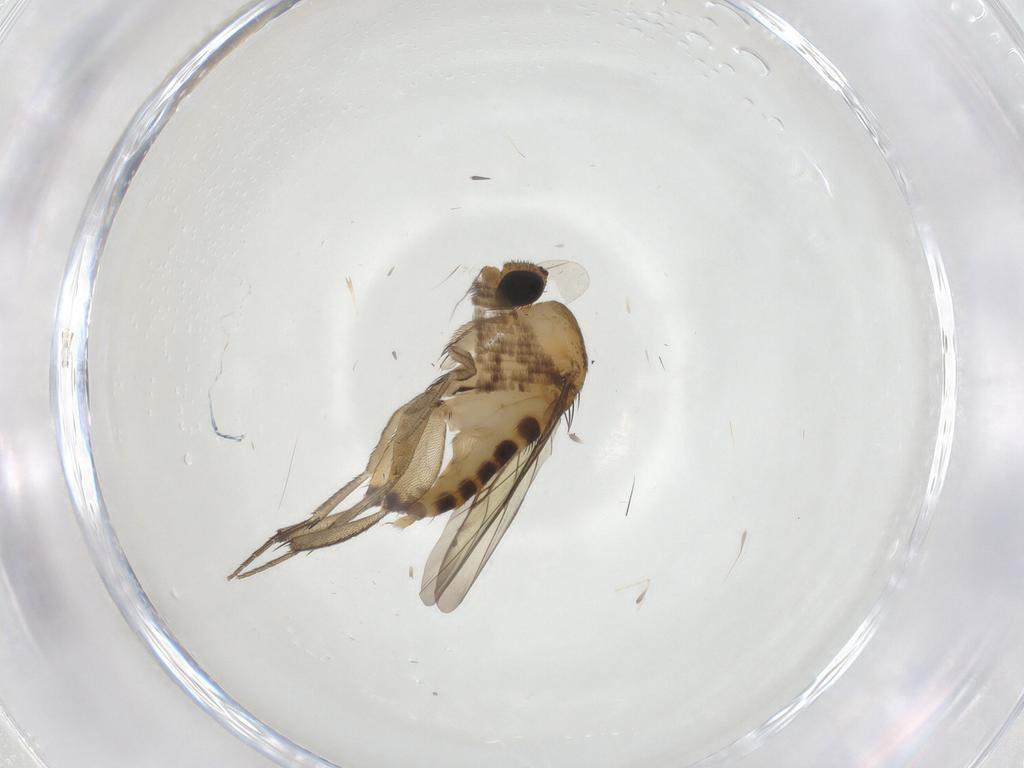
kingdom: Animalia
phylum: Arthropoda
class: Insecta
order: Diptera
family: Phoridae
